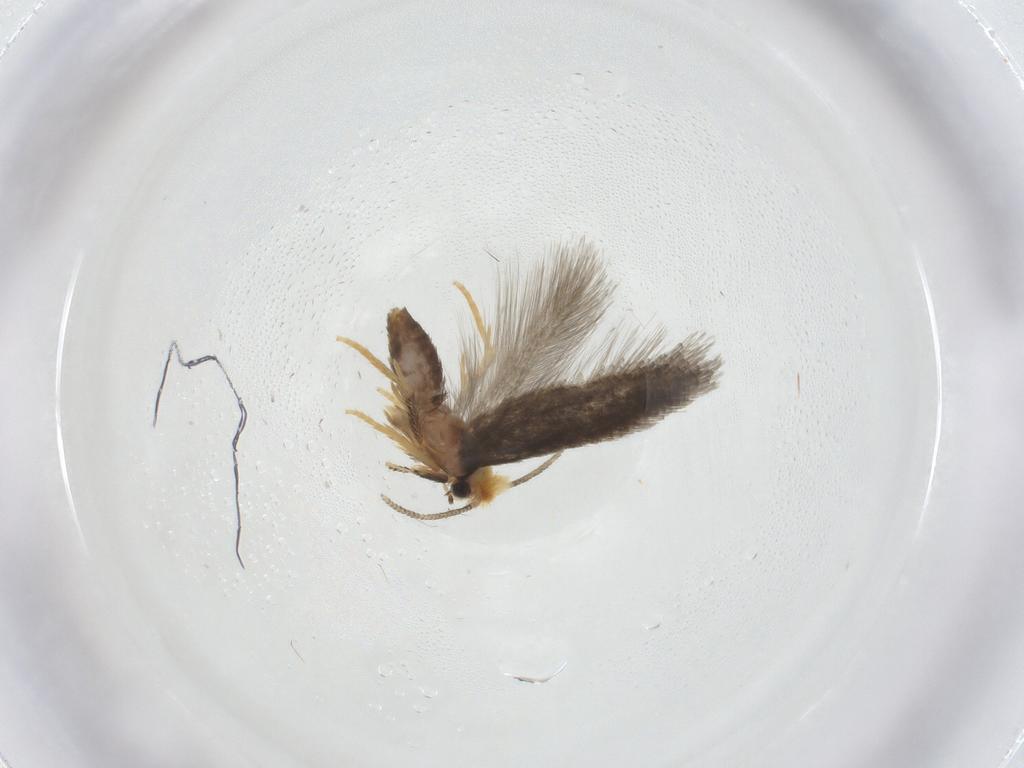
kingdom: Animalia
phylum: Arthropoda
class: Insecta
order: Lepidoptera
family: Nepticulidae
